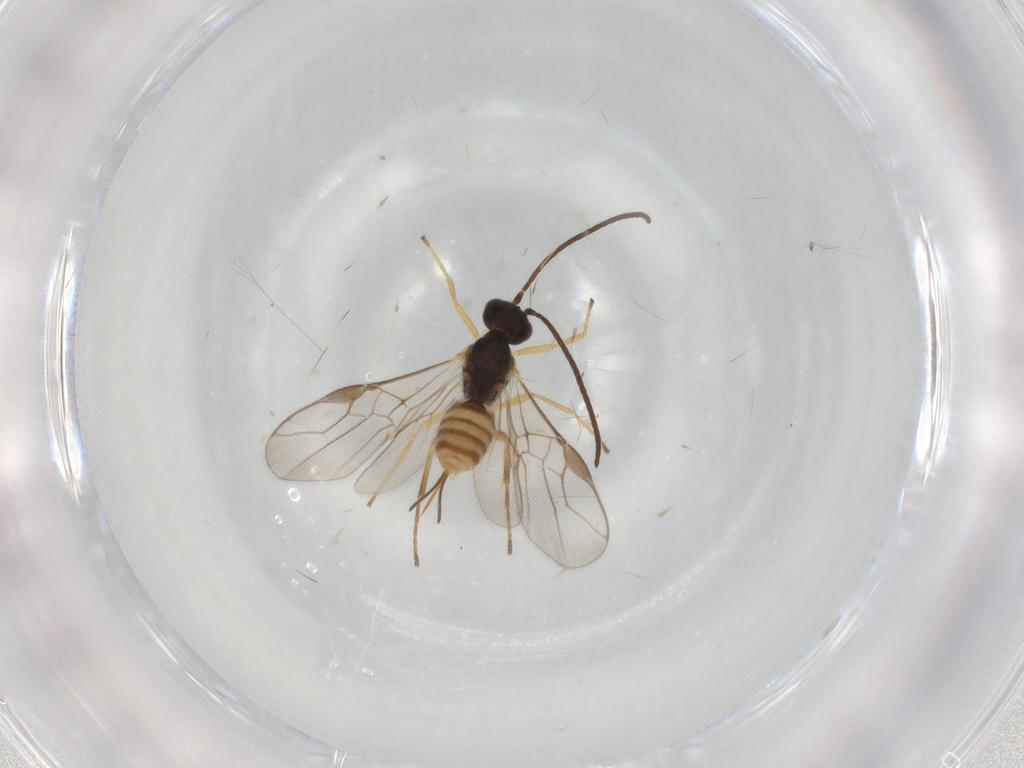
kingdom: Animalia
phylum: Arthropoda
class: Insecta
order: Hymenoptera
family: Braconidae
